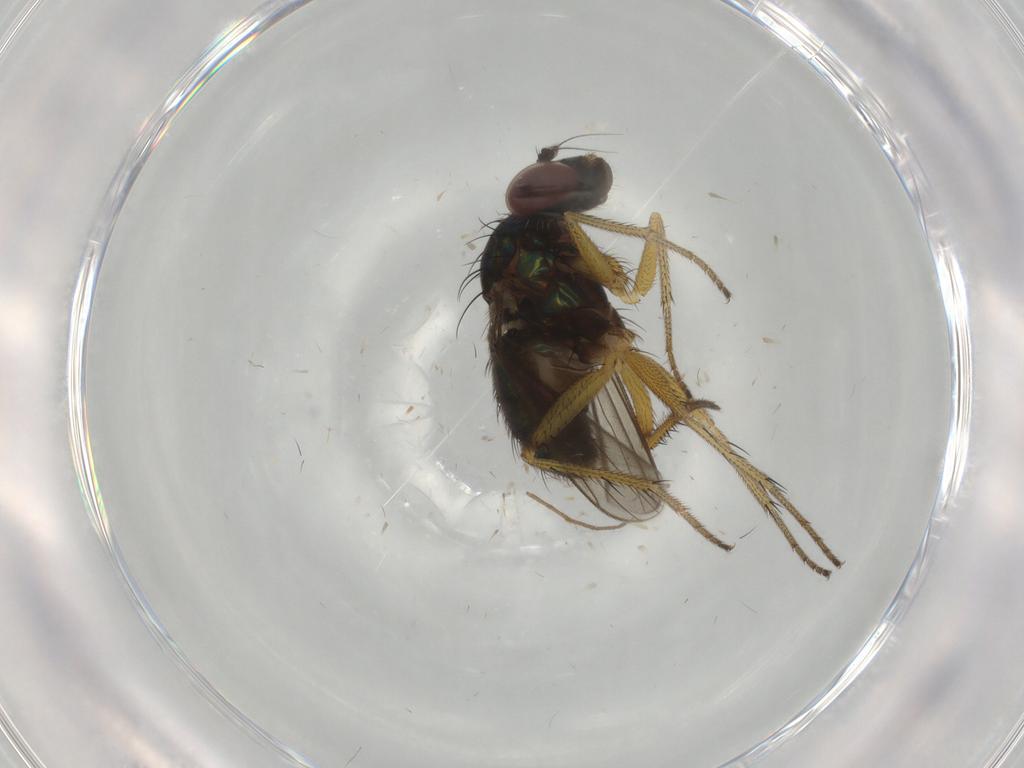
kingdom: Animalia
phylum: Arthropoda
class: Insecta
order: Diptera
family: Dolichopodidae
